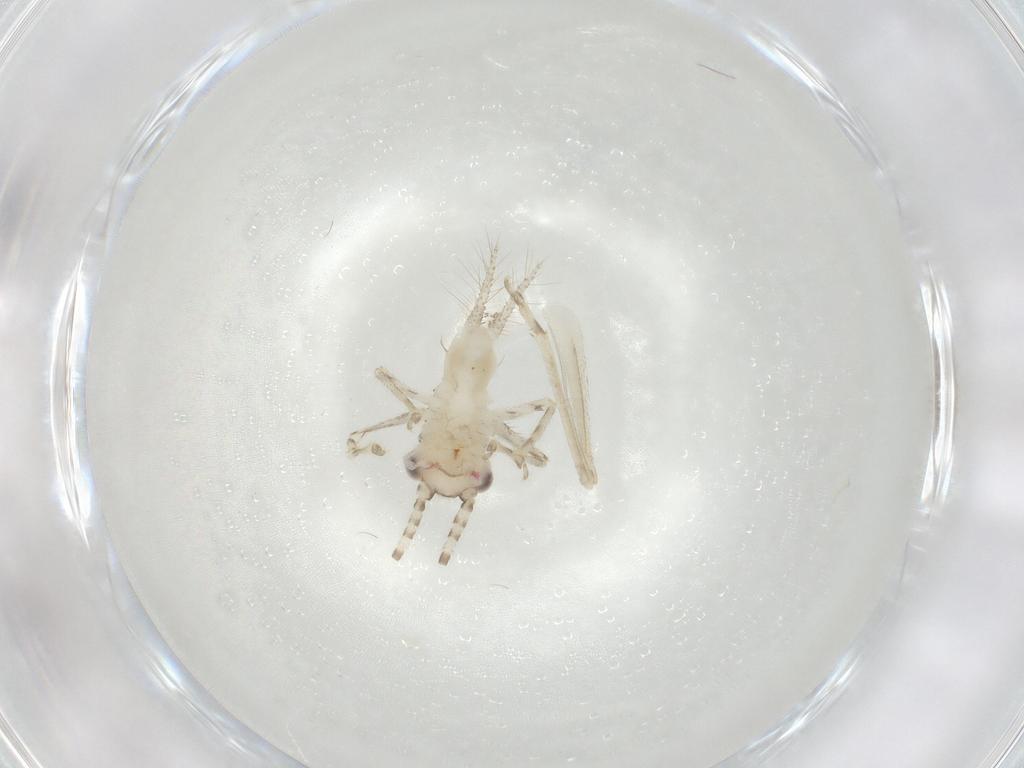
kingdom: Animalia
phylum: Arthropoda
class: Insecta
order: Orthoptera
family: Trigonidiidae
